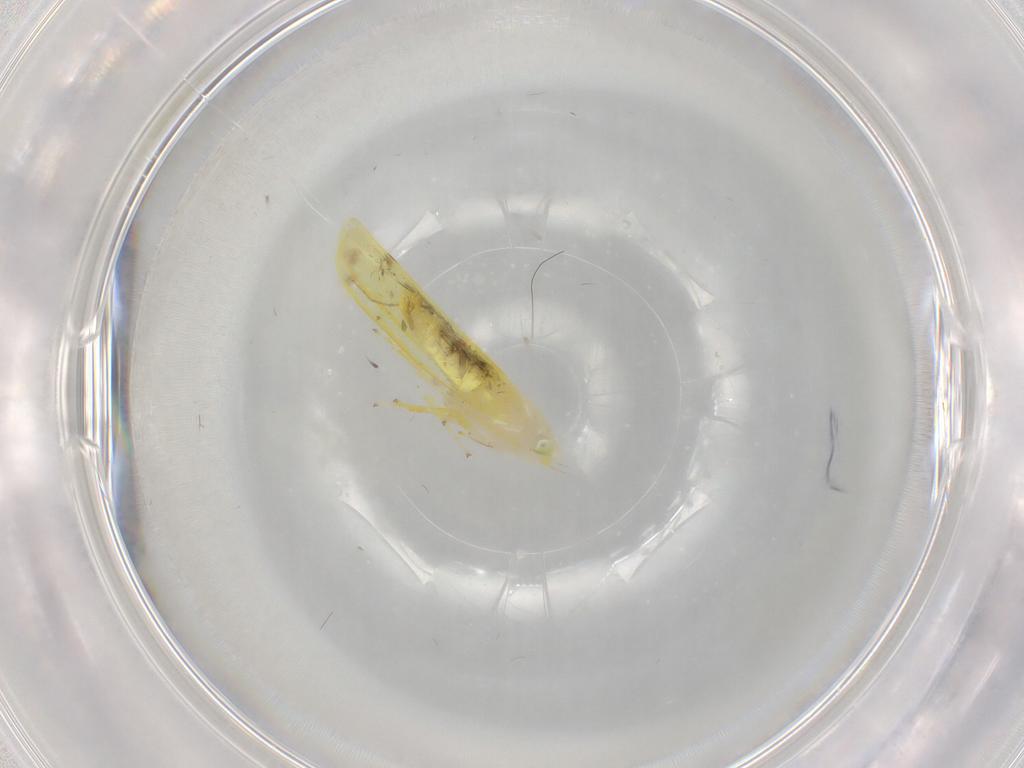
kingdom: Animalia
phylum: Arthropoda
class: Insecta
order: Hemiptera
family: Cicadellidae
